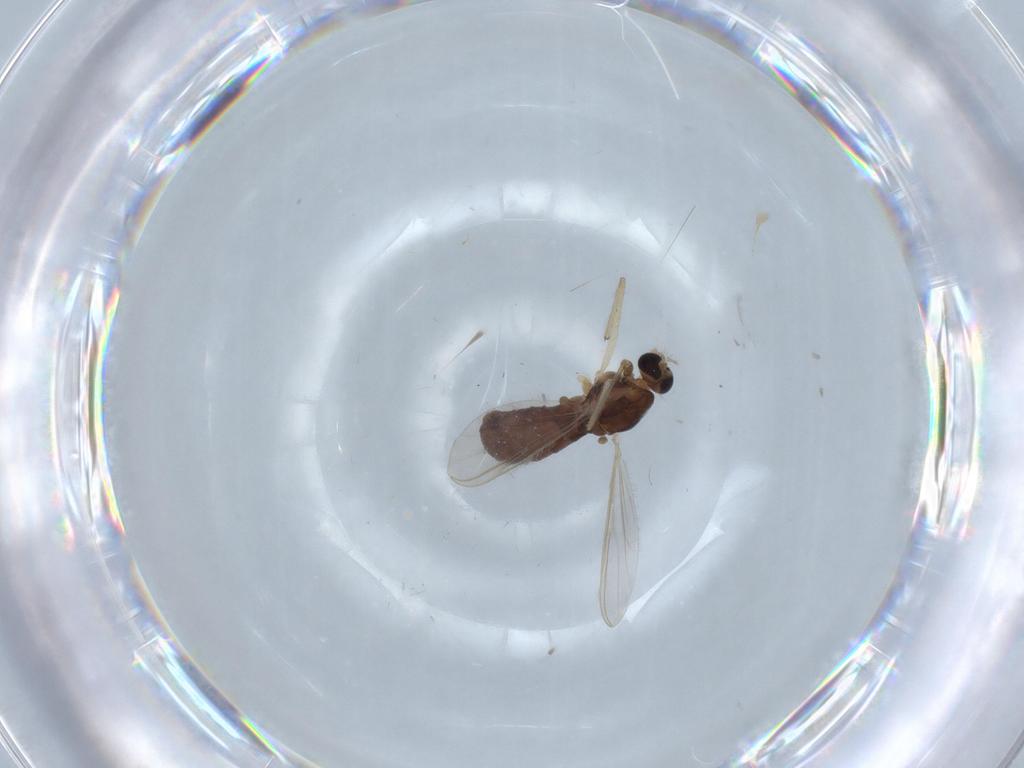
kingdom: Animalia
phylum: Arthropoda
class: Insecta
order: Diptera
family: Chironomidae
